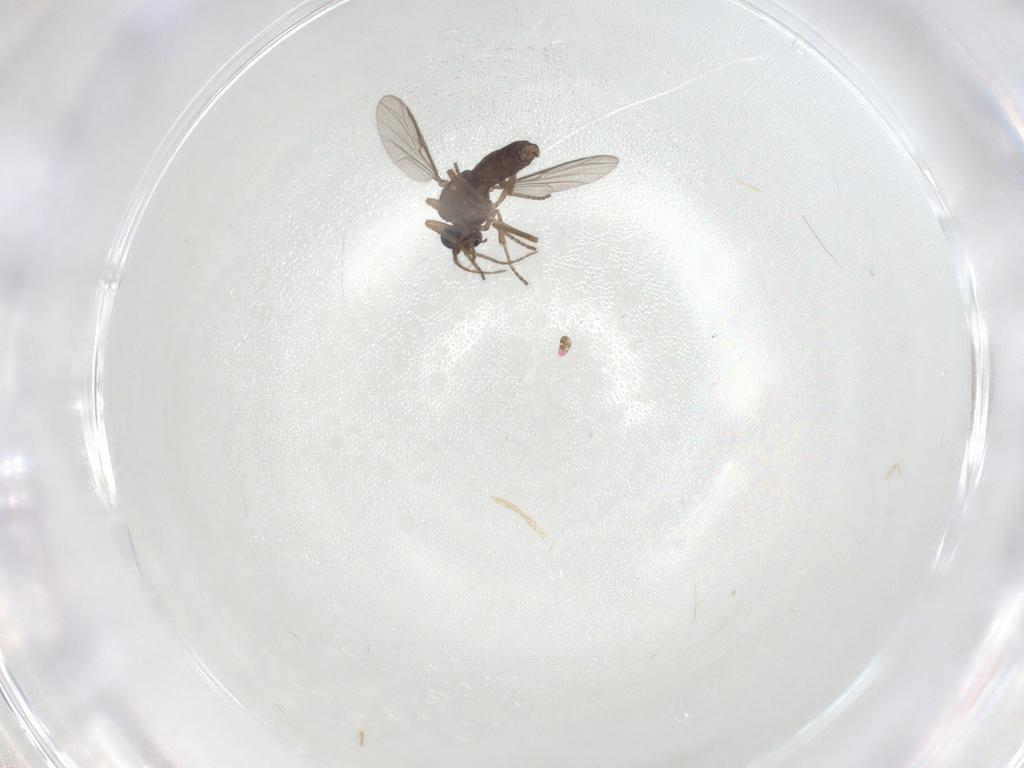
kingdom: Animalia
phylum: Arthropoda
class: Insecta
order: Diptera
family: Ceratopogonidae
